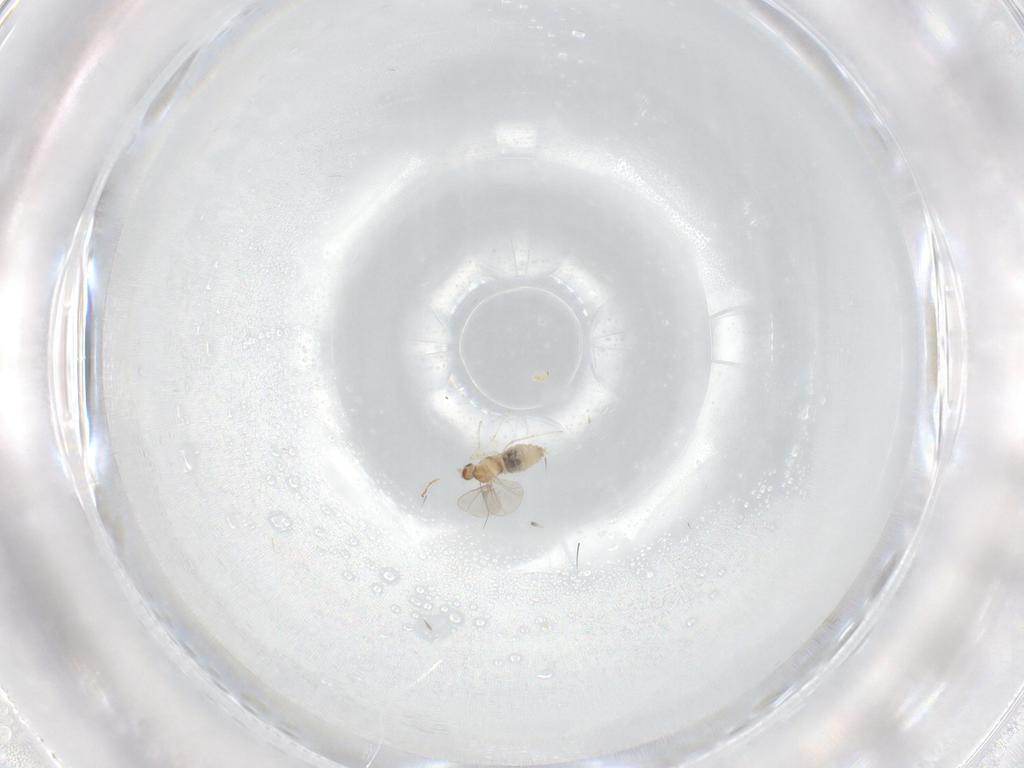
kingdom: Animalia
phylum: Arthropoda
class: Insecta
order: Diptera
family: Cecidomyiidae
